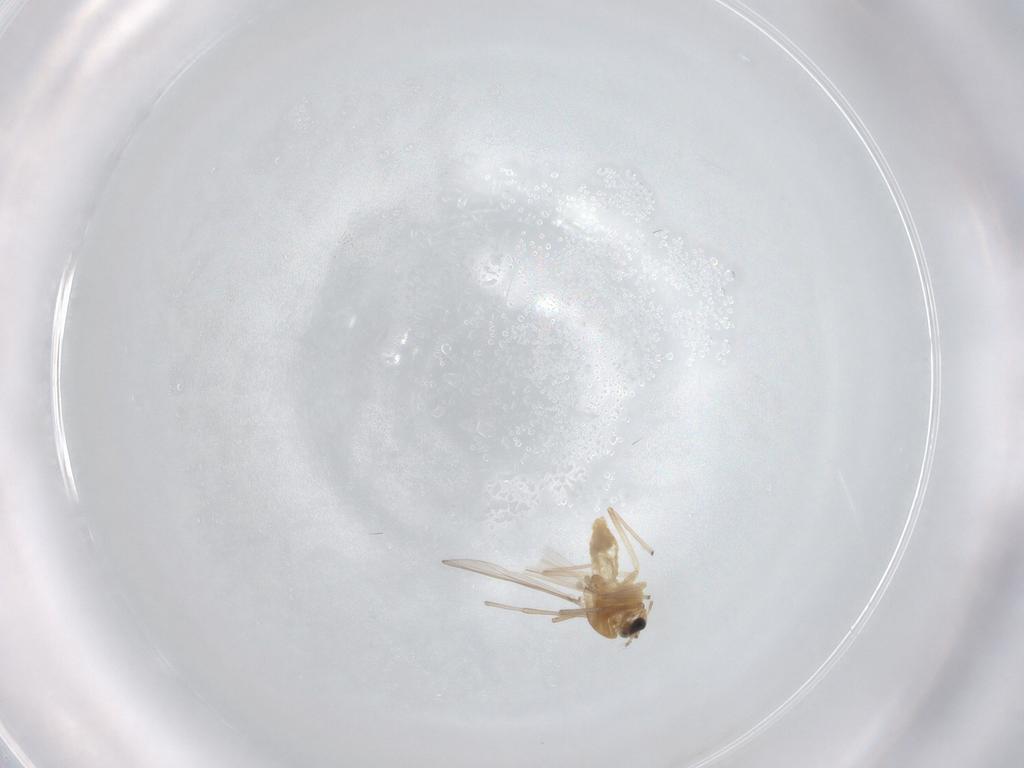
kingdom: Animalia
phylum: Arthropoda
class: Insecta
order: Diptera
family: Chironomidae
